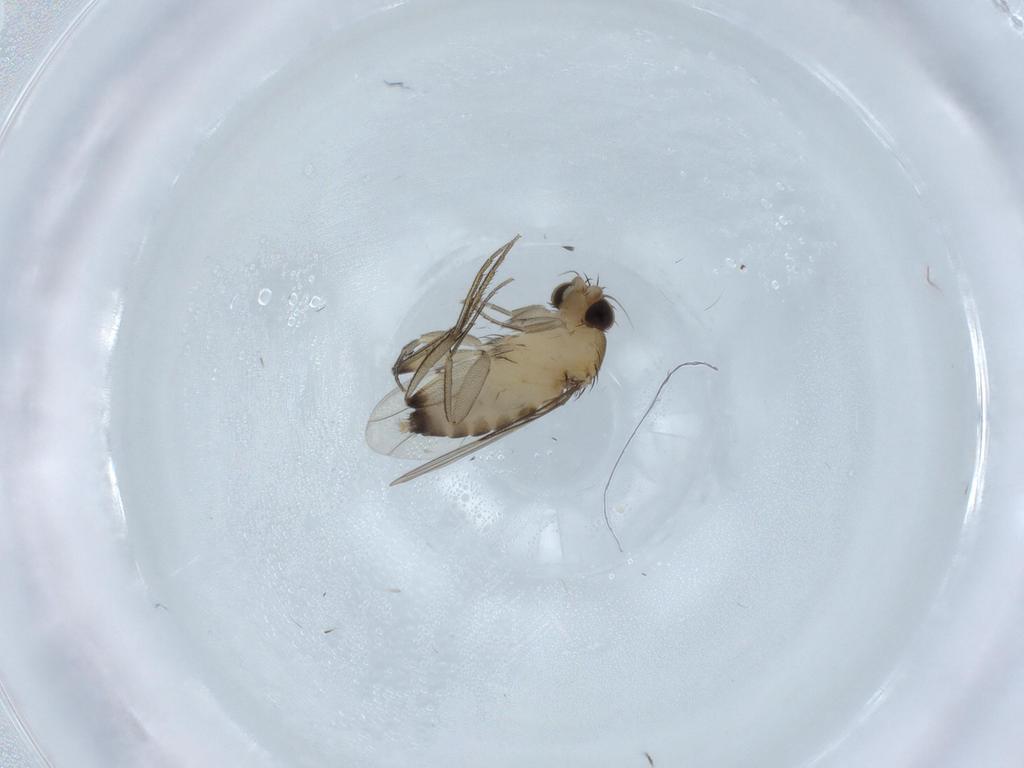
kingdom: Animalia
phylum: Arthropoda
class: Insecta
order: Diptera
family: Phoridae
